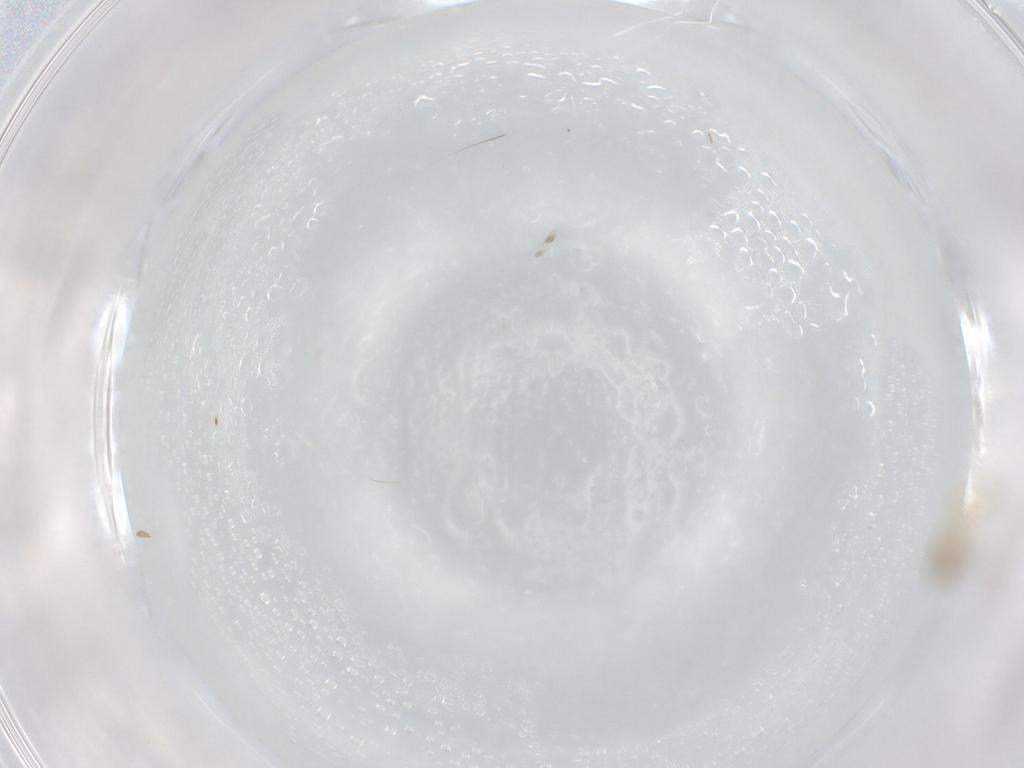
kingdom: Animalia
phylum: Arthropoda
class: Insecta
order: Diptera
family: Cecidomyiidae
